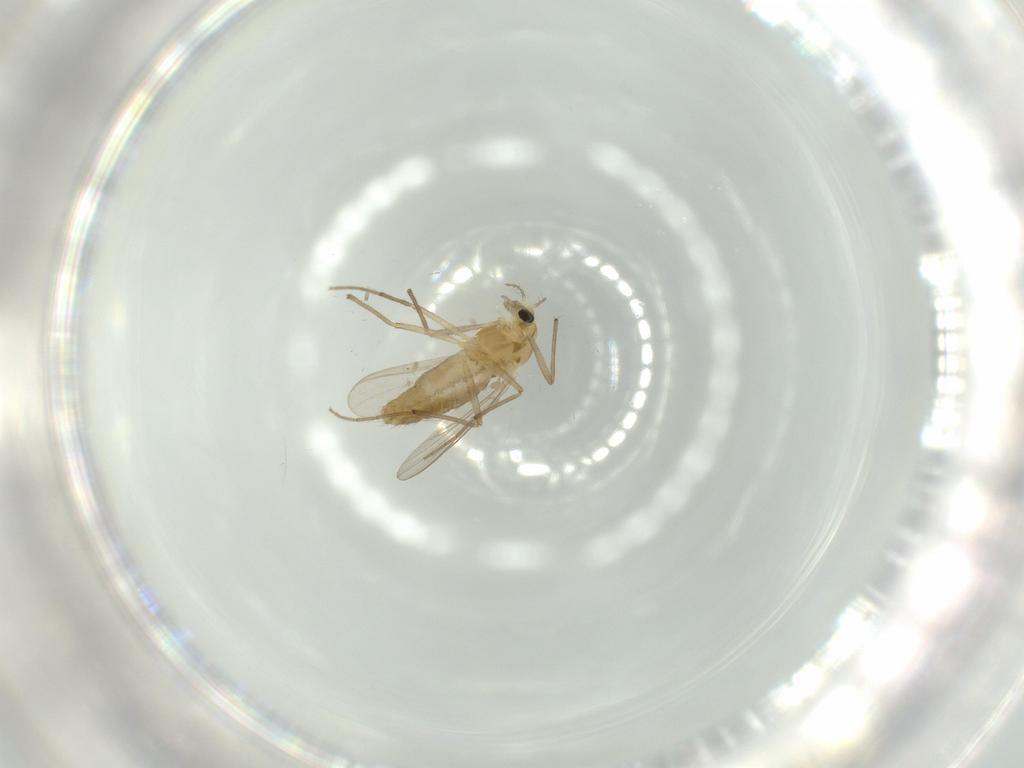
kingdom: Animalia
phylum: Arthropoda
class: Insecta
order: Diptera
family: Chironomidae
